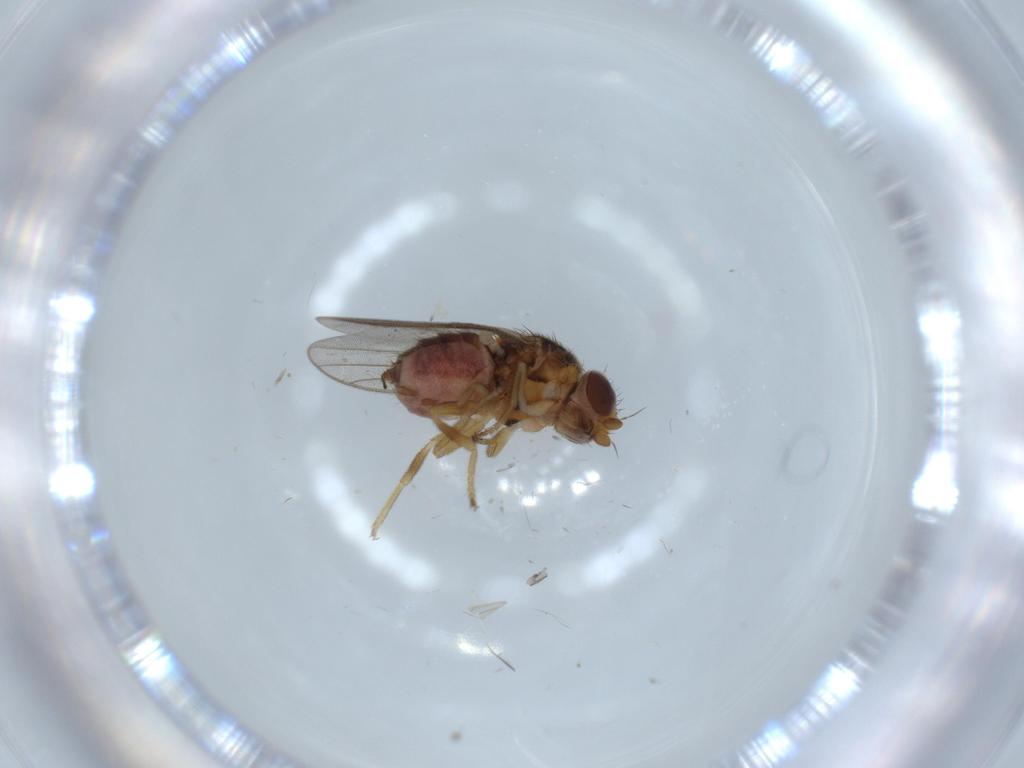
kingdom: Animalia
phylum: Arthropoda
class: Insecta
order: Diptera
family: Chloropidae
